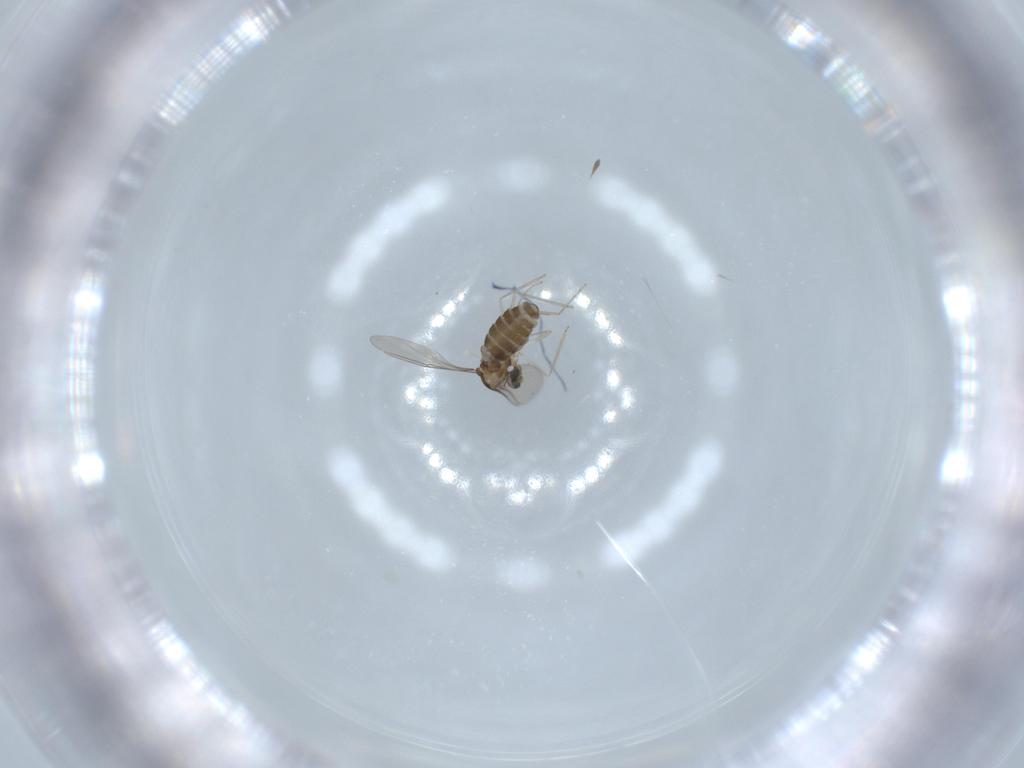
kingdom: Animalia
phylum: Arthropoda
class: Insecta
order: Diptera
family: Cecidomyiidae
